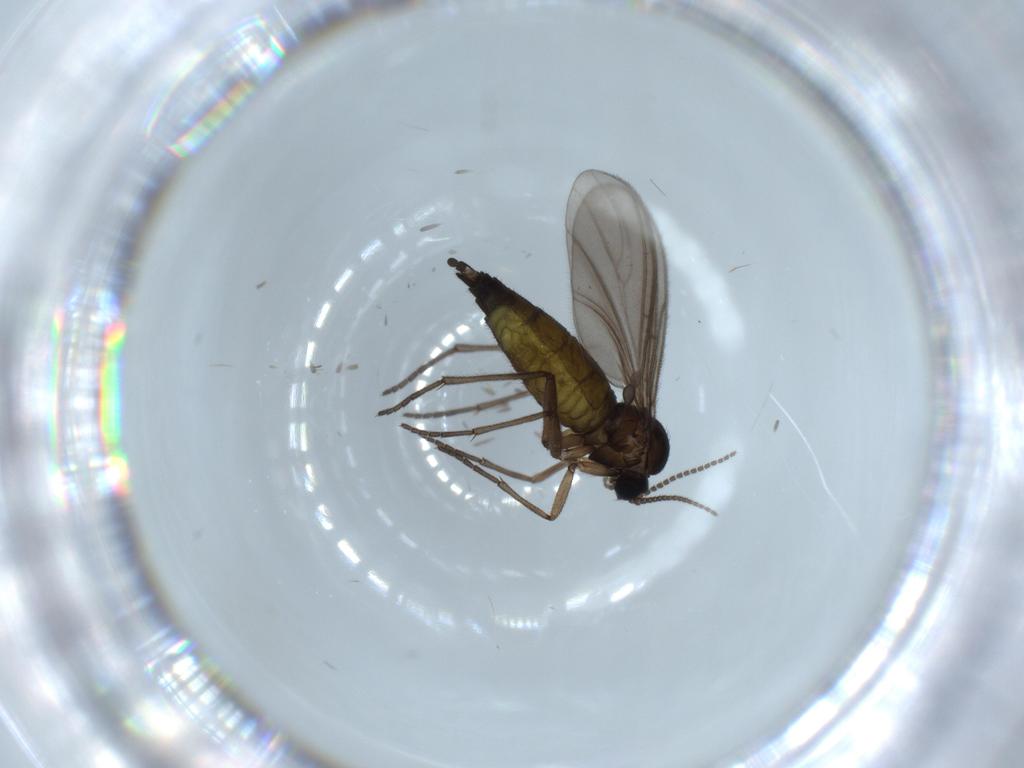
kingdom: Animalia
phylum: Arthropoda
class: Insecta
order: Diptera
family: Sciaridae
